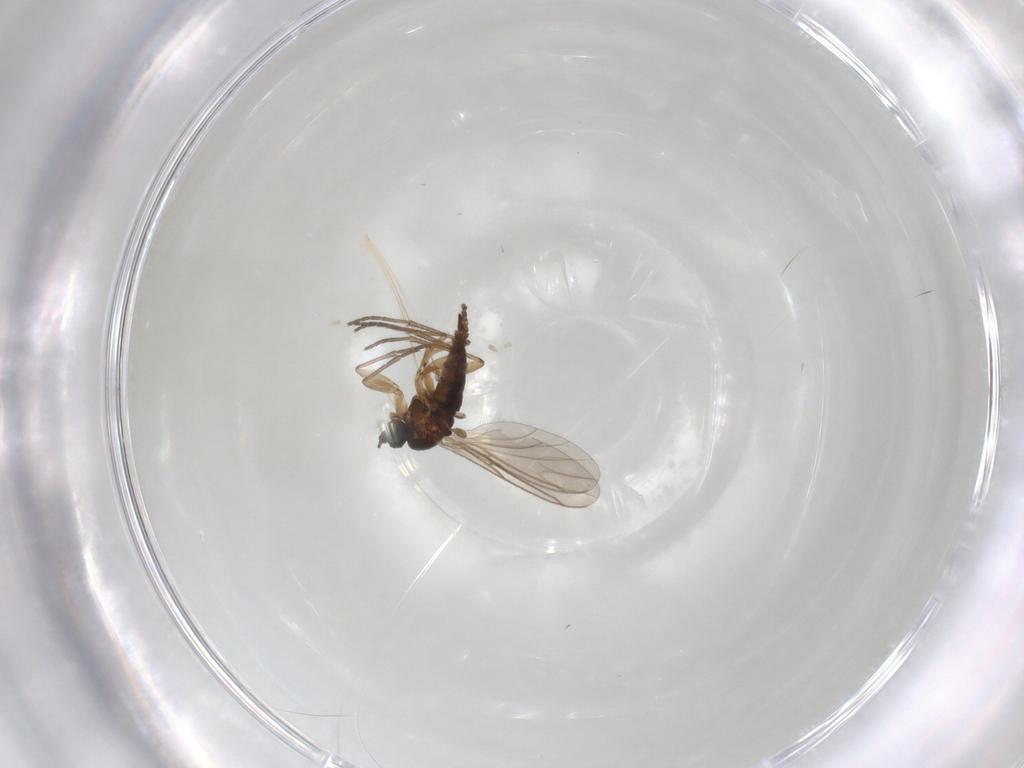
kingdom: Animalia
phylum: Arthropoda
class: Insecta
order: Diptera
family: Sciaridae
